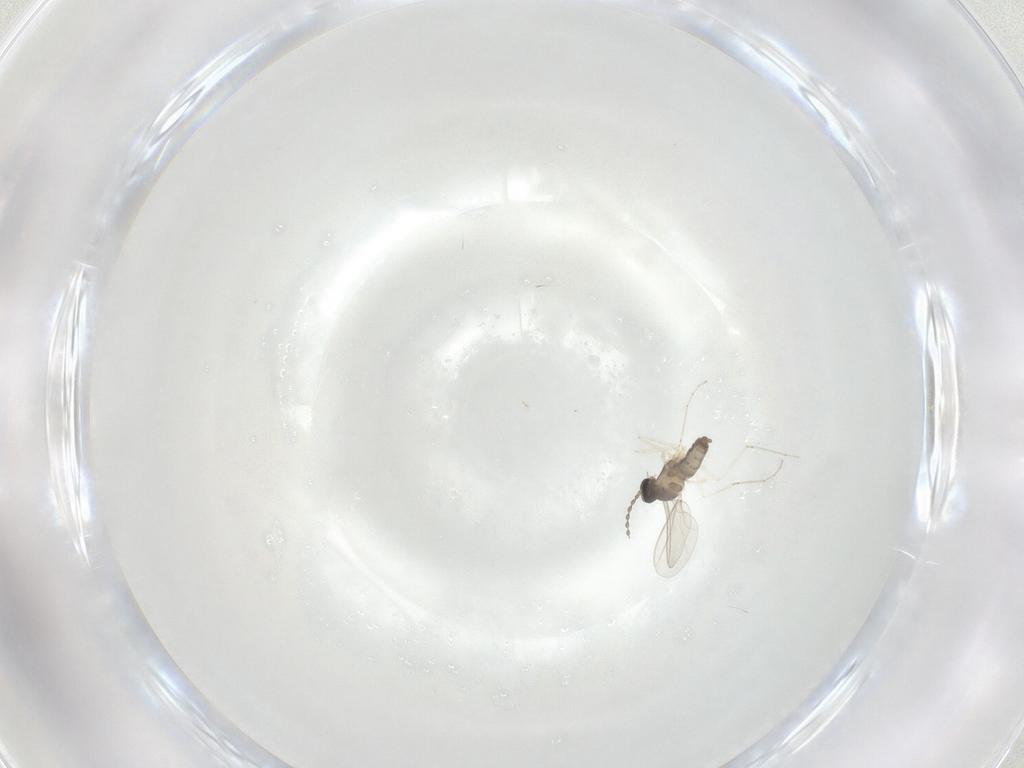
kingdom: Animalia
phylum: Arthropoda
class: Insecta
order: Diptera
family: Cecidomyiidae
